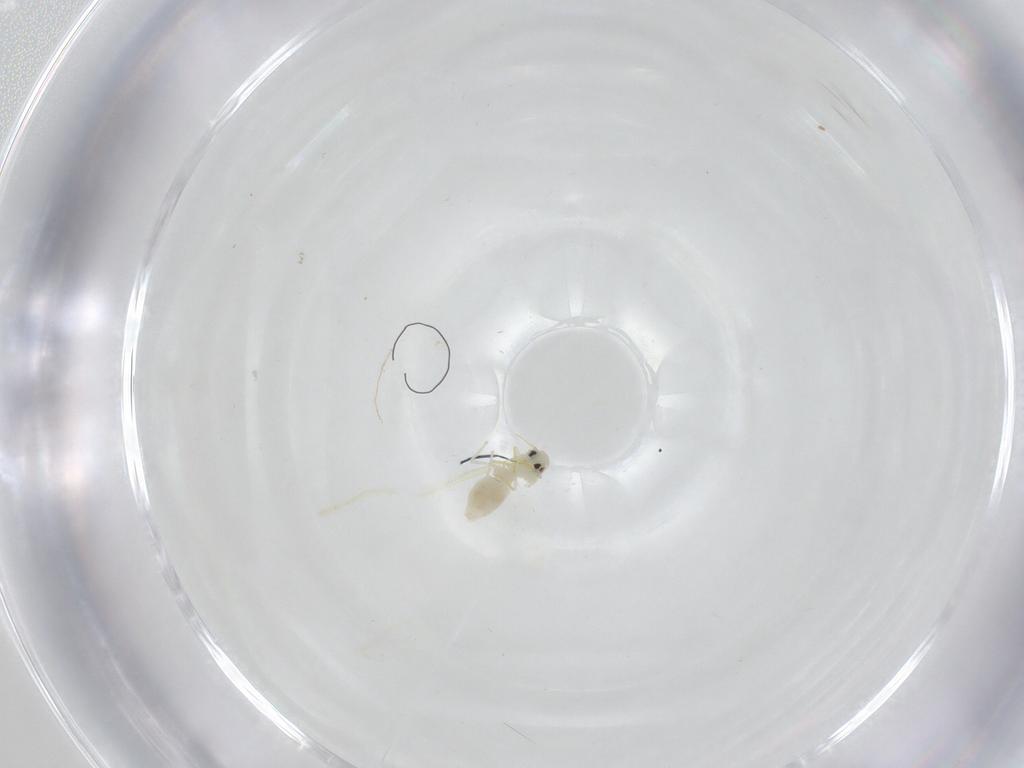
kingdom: Animalia
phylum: Arthropoda
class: Insecta
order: Hemiptera
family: Aleyrodidae
